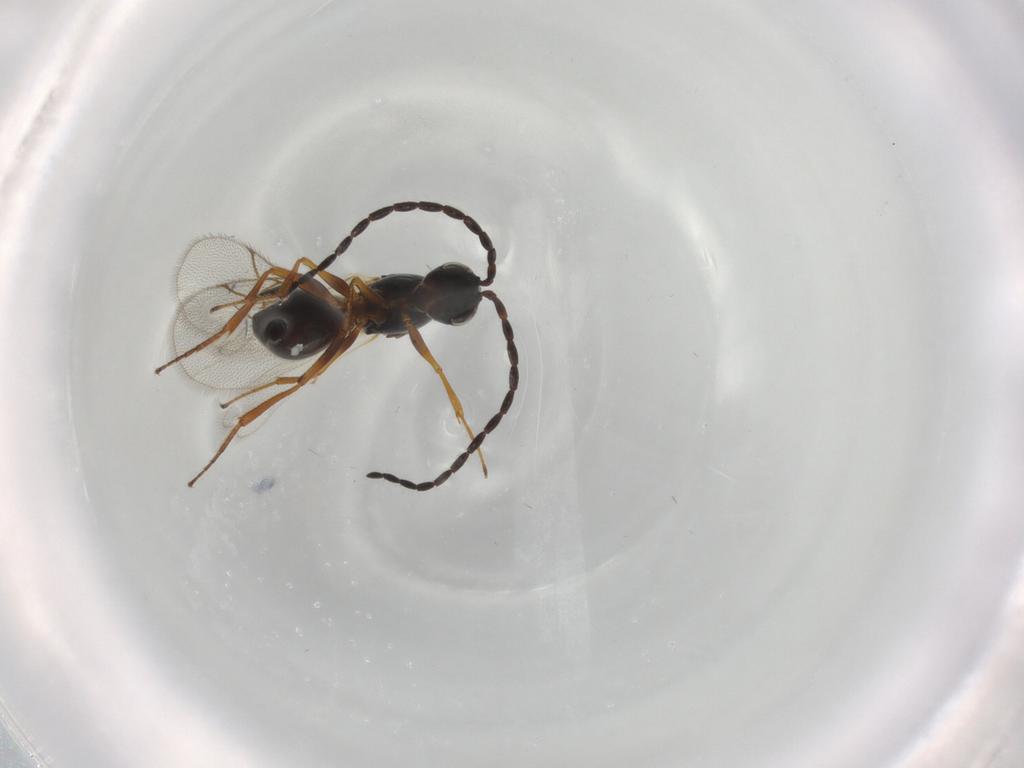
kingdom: Animalia
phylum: Arthropoda
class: Insecta
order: Hymenoptera
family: Figitidae
